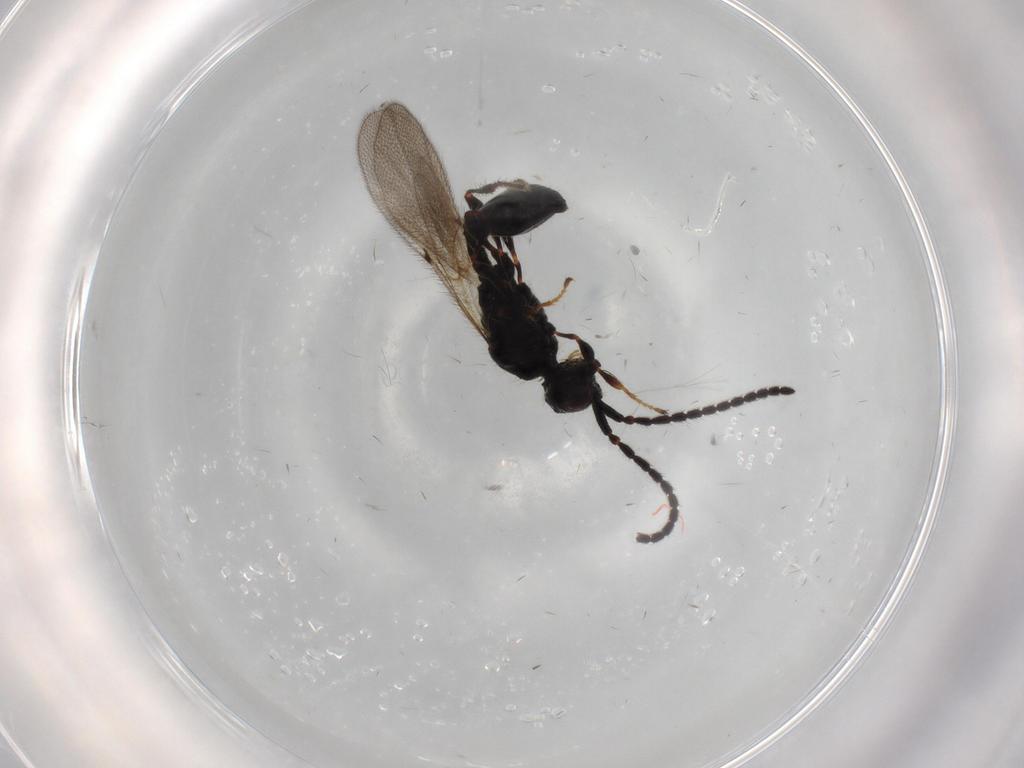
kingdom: Animalia
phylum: Arthropoda
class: Insecta
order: Hymenoptera
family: Diapriidae
